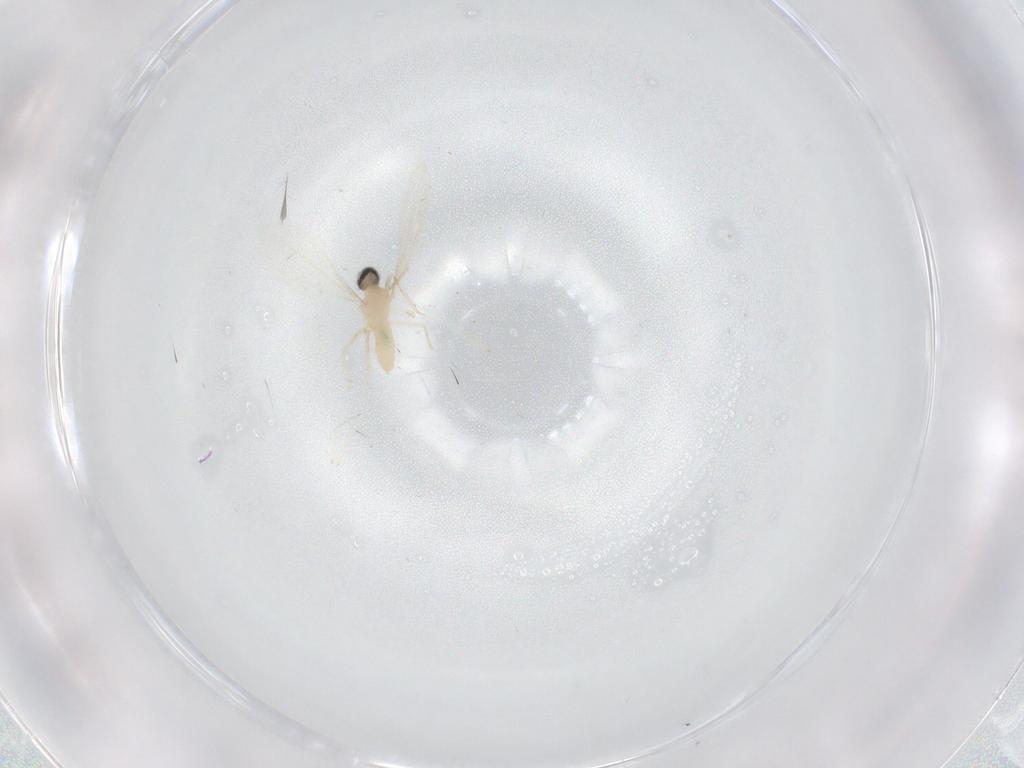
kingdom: Animalia
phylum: Arthropoda
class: Insecta
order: Diptera
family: Cecidomyiidae
